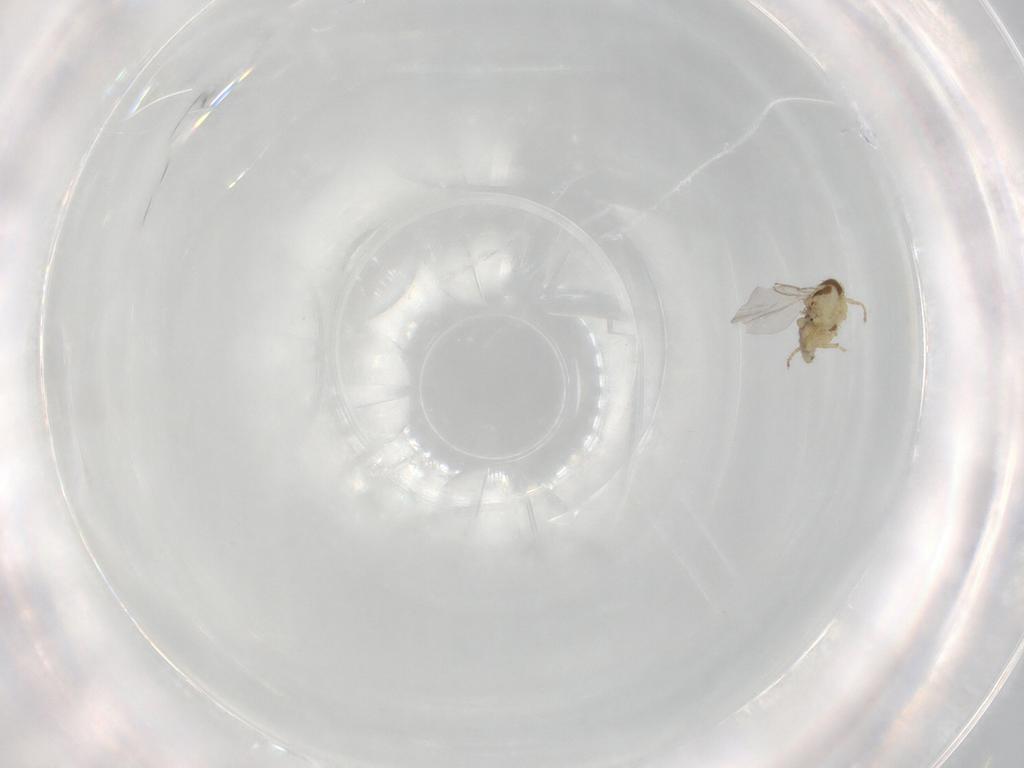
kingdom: Animalia
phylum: Arthropoda
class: Insecta
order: Diptera
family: Agromyzidae
